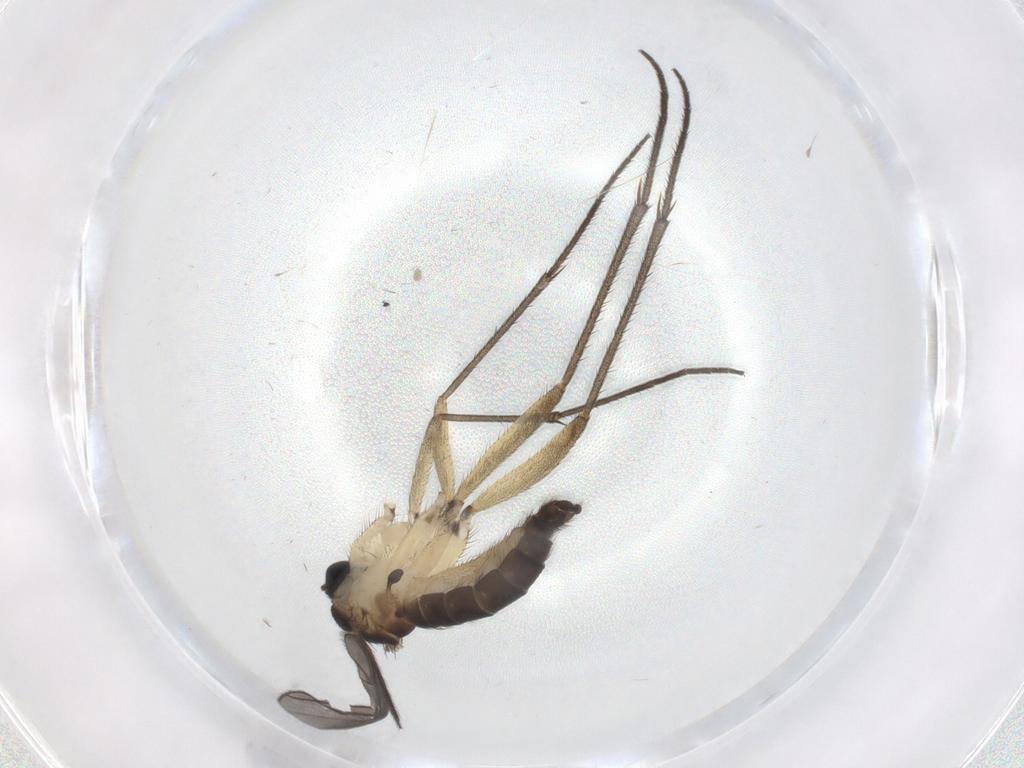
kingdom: Animalia
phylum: Arthropoda
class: Insecta
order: Diptera
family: Sciaridae
